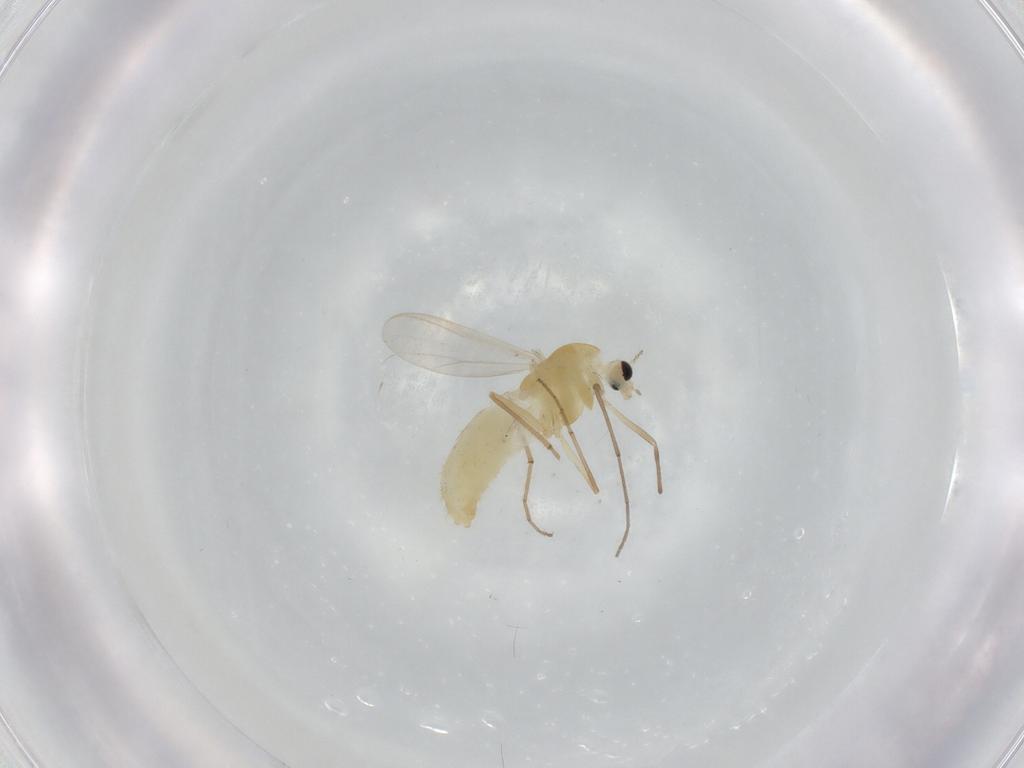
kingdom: Animalia
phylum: Arthropoda
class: Insecta
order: Diptera
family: Chironomidae
